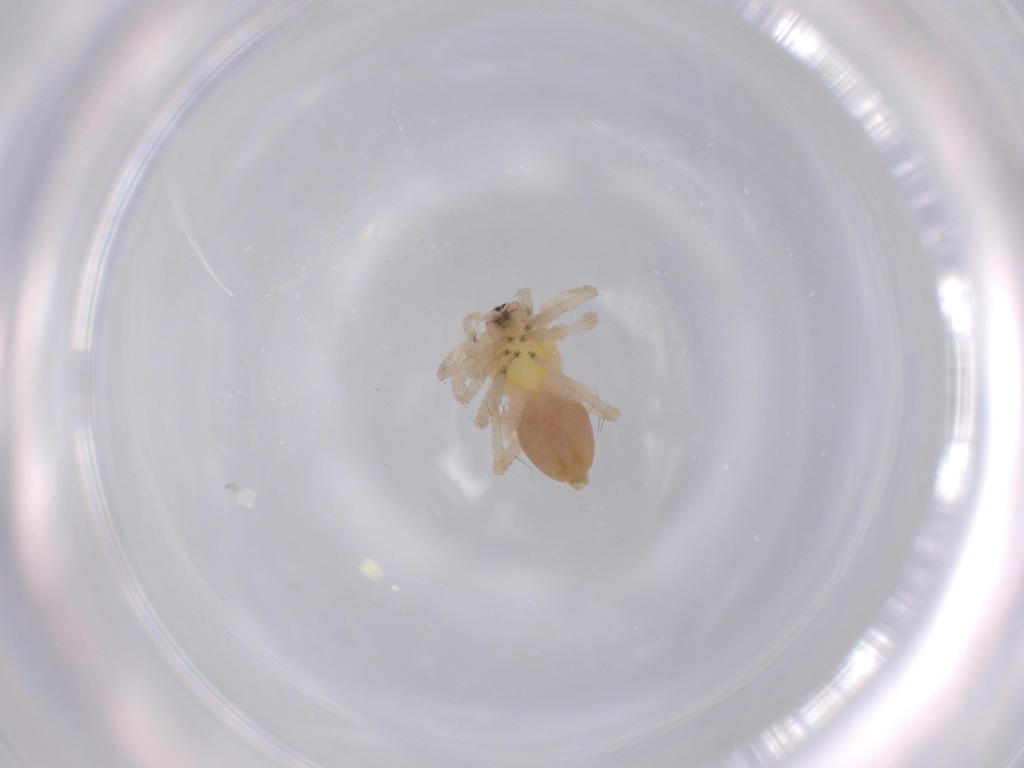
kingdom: Animalia
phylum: Arthropoda
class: Arachnida
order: Araneae
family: Anyphaenidae
